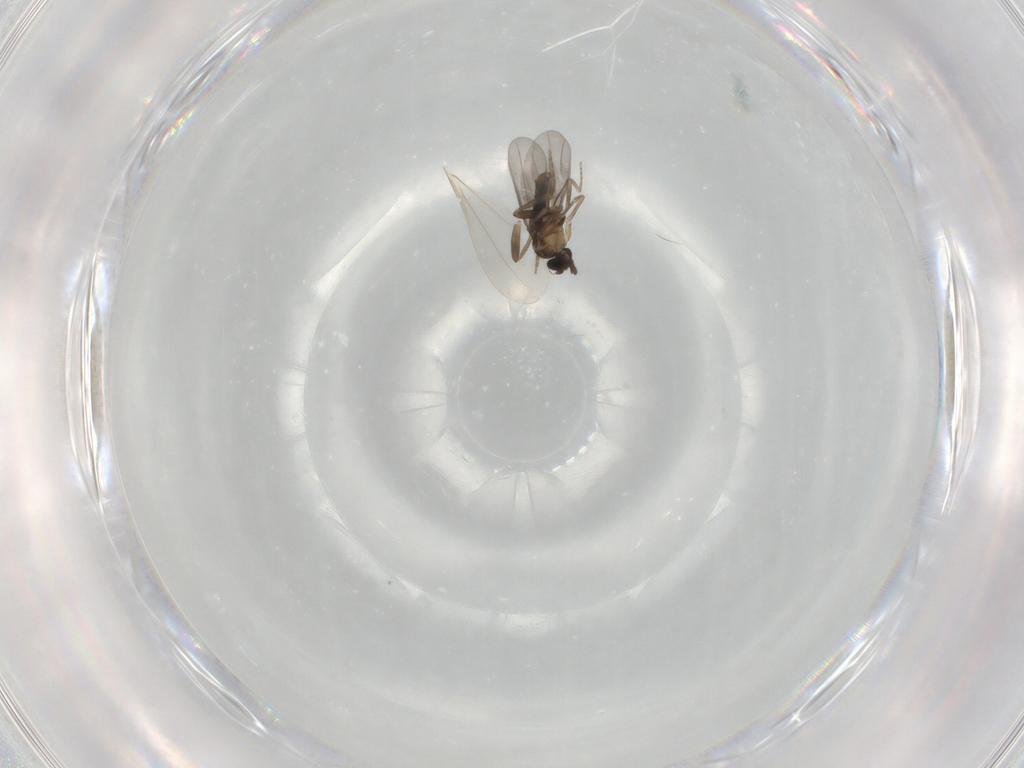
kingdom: Animalia
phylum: Arthropoda
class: Insecta
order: Diptera
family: Cecidomyiidae
